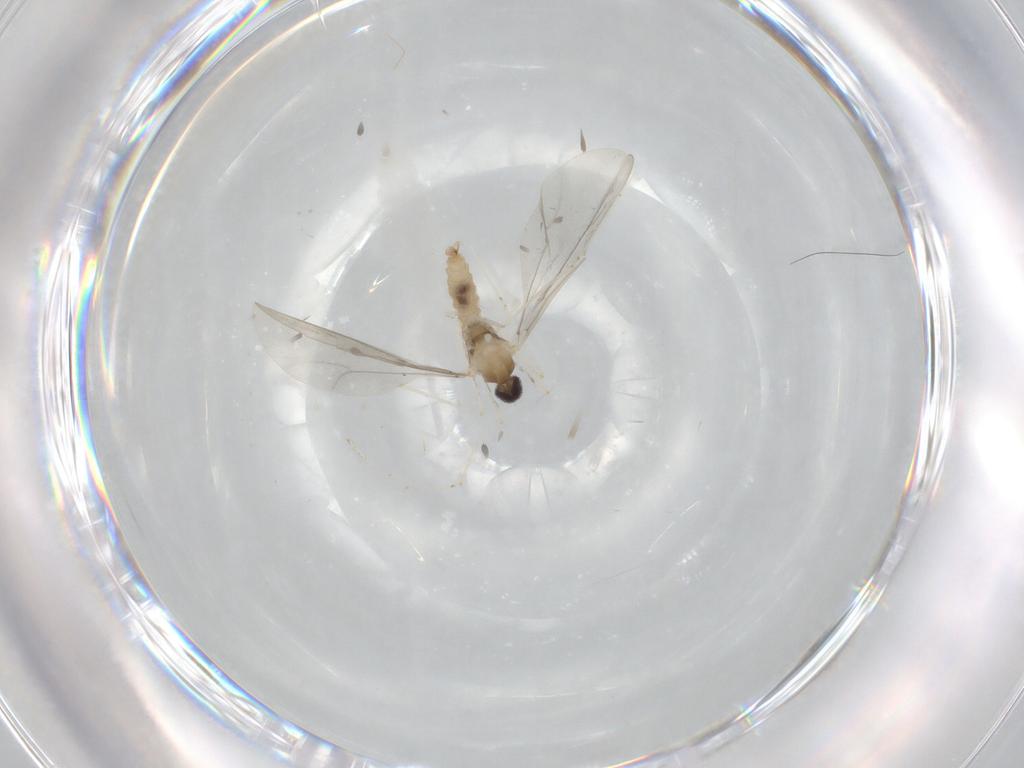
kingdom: Animalia
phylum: Arthropoda
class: Insecta
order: Diptera
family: Cecidomyiidae
